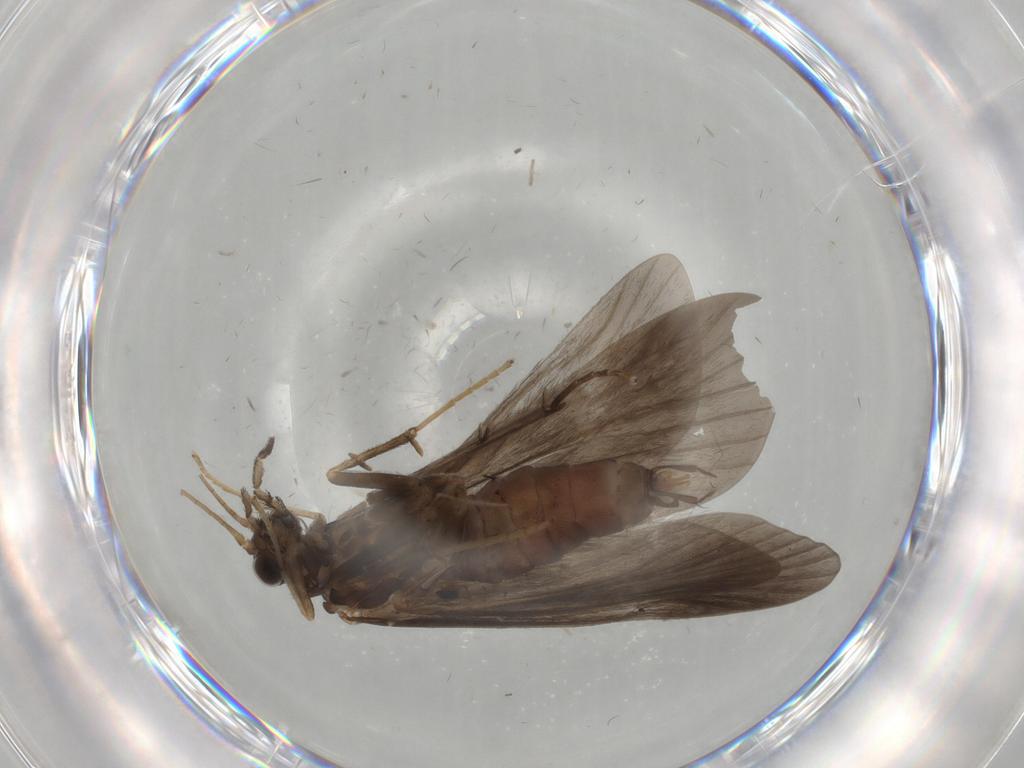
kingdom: Animalia
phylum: Arthropoda
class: Insecta
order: Trichoptera
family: Hydropsychidae
